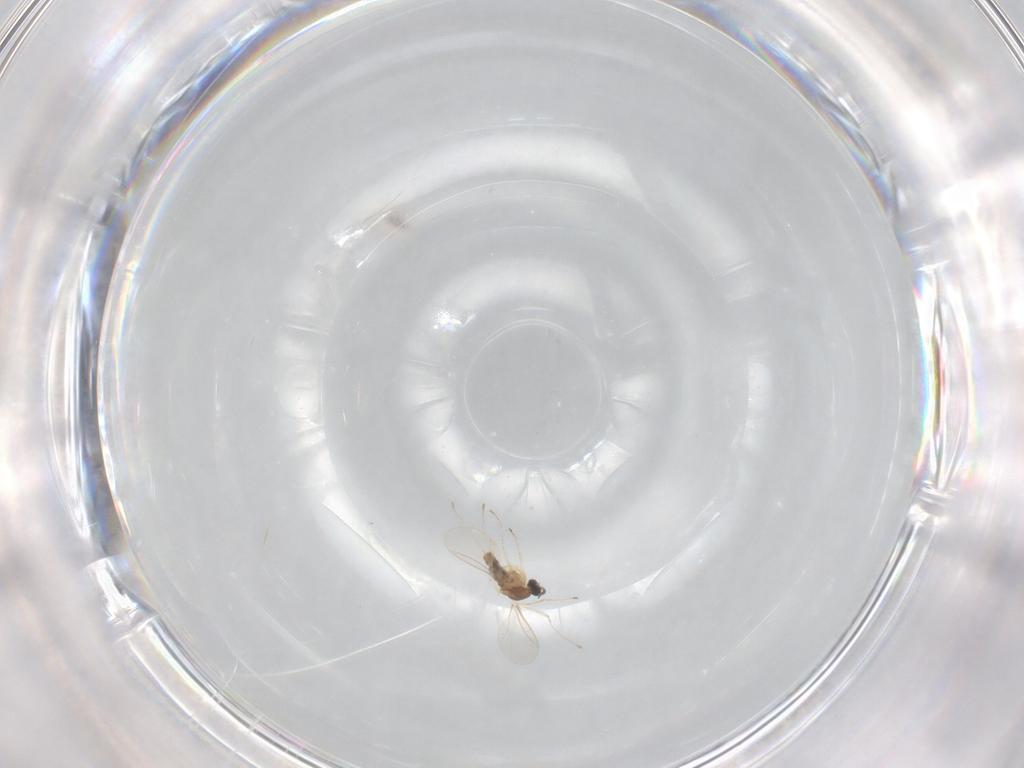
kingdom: Animalia
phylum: Arthropoda
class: Insecta
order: Diptera
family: Cecidomyiidae
